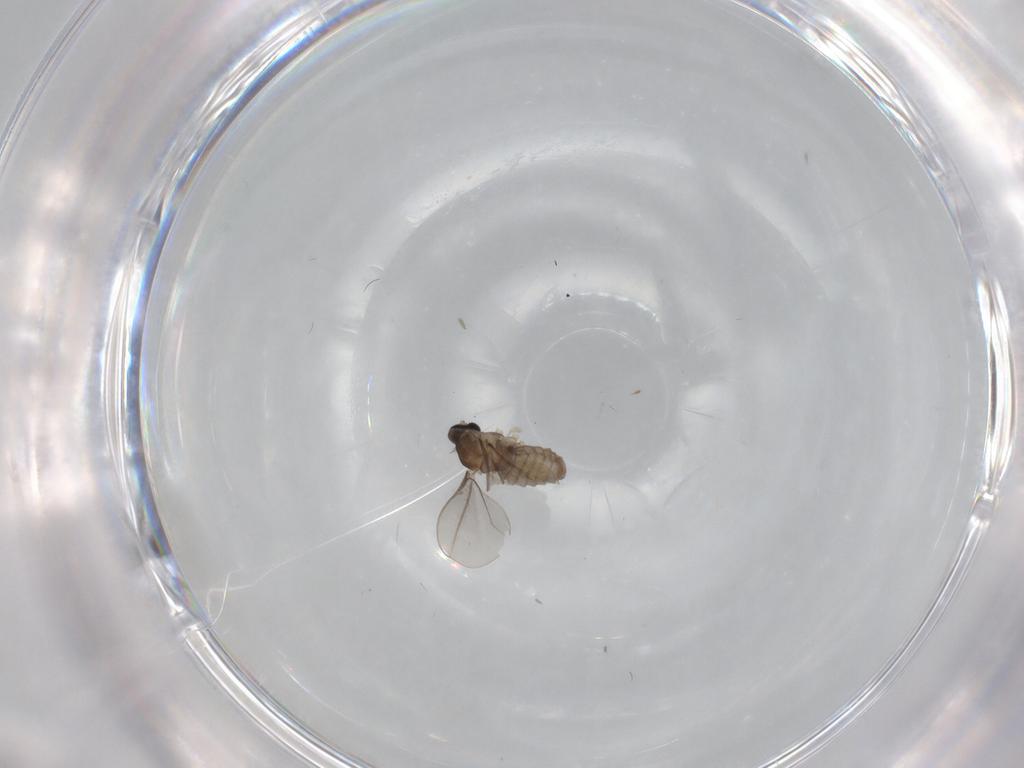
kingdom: Animalia
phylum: Arthropoda
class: Insecta
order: Diptera
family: Cecidomyiidae
